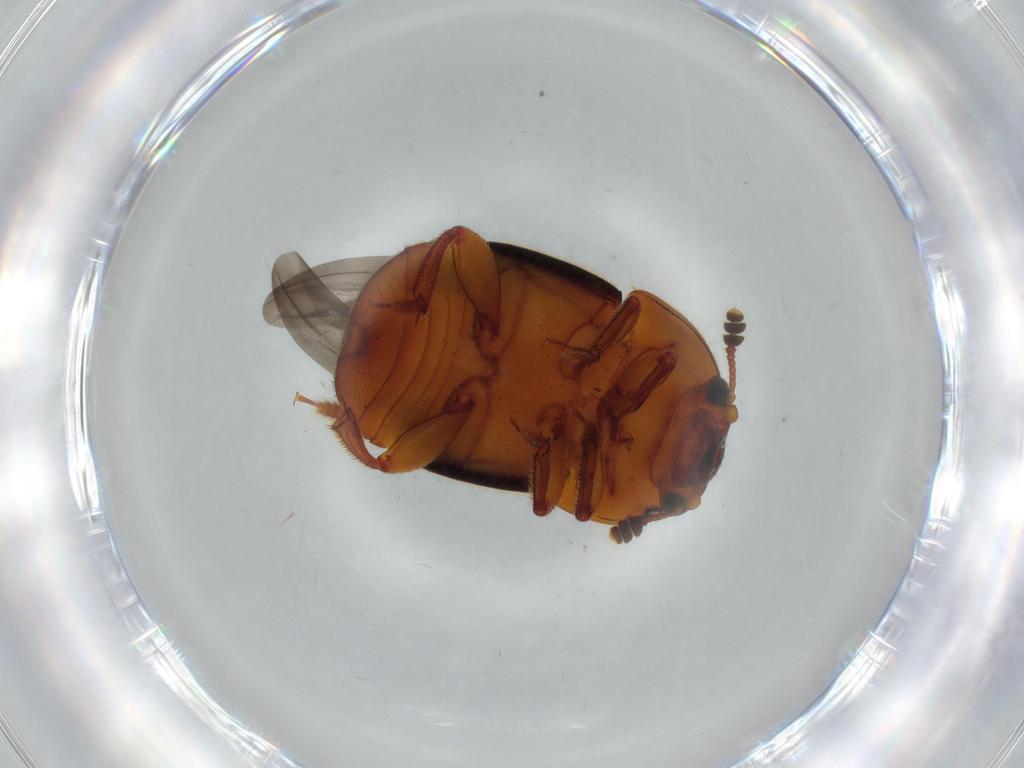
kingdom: Animalia
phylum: Arthropoda
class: Insecta
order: Coleoptera
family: Nitidulidae
